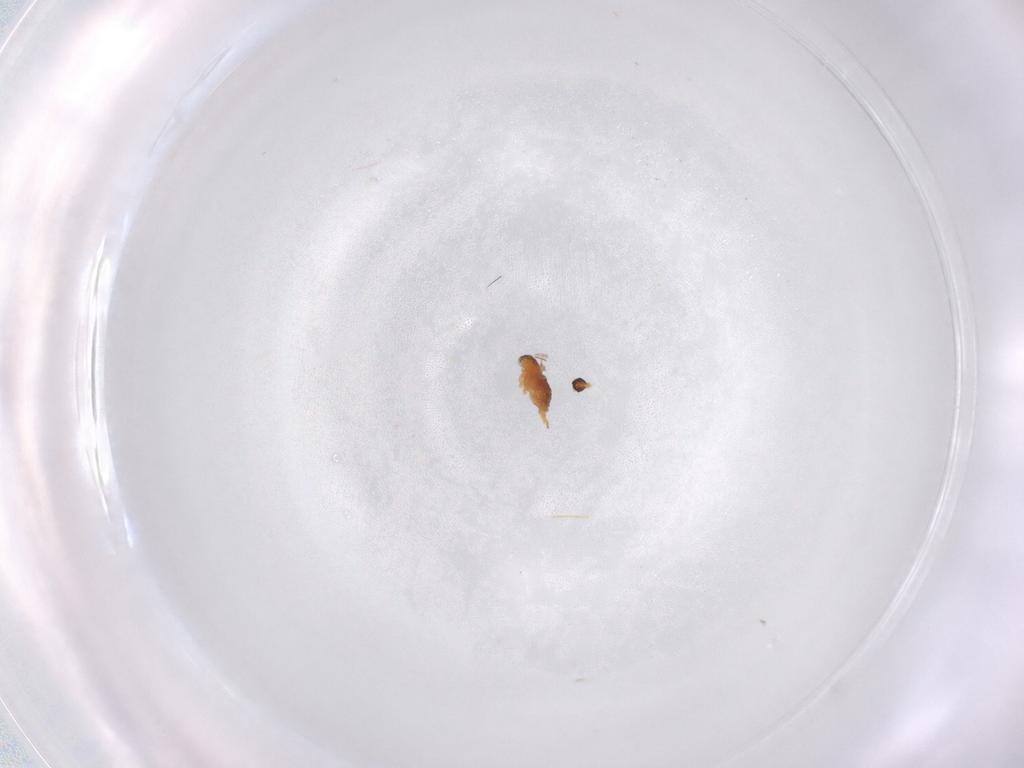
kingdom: Animalia
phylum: Arthropoda
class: Insecta
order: Diptera
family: Cecidomyiidae
